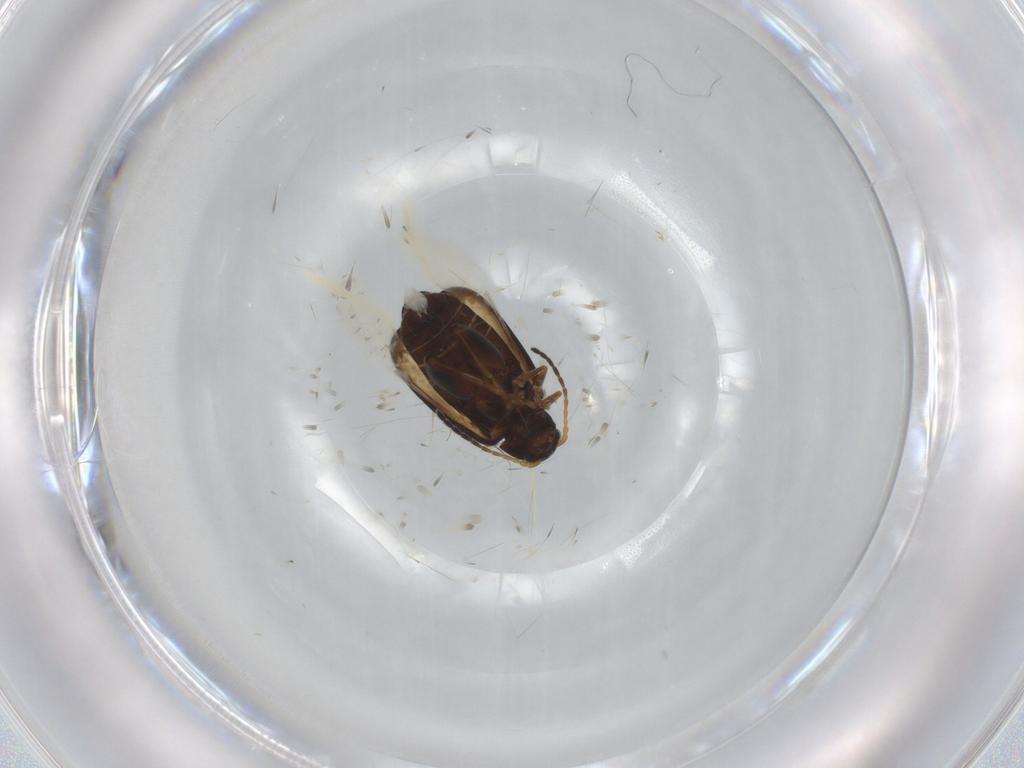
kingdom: Animalia
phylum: Arthropoda
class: Insecta
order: Coleoptera
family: Chrysomelidae
